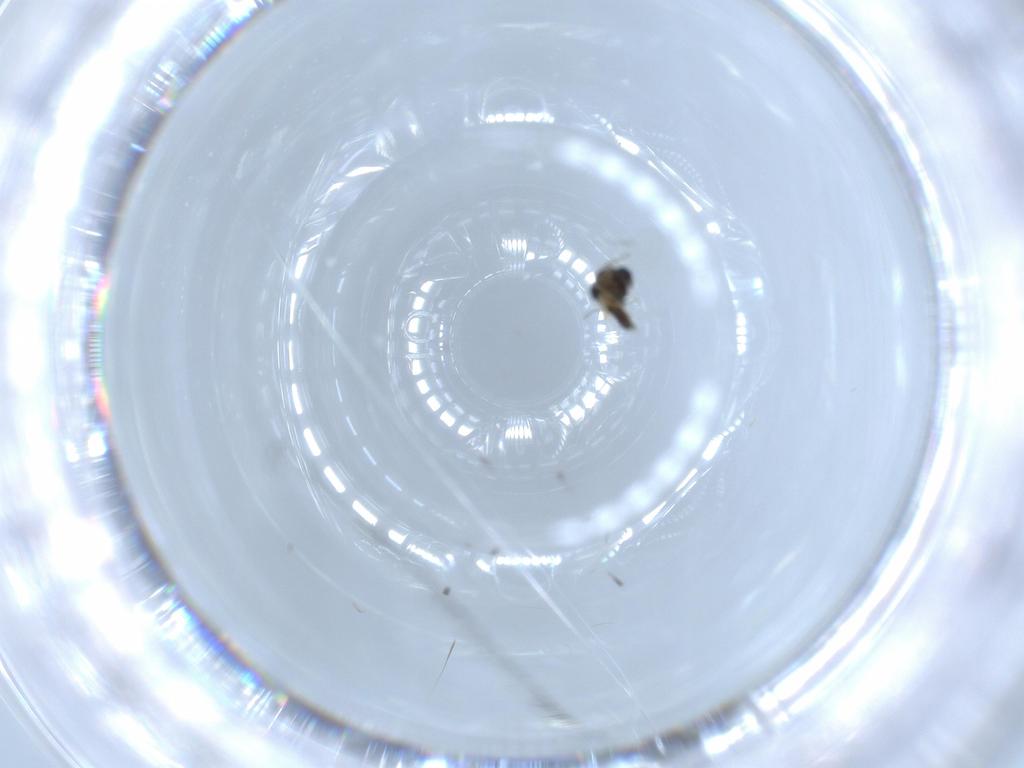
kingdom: Animalia
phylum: Arthropoda
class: Insecta
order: Diptera
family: Chironomidae
